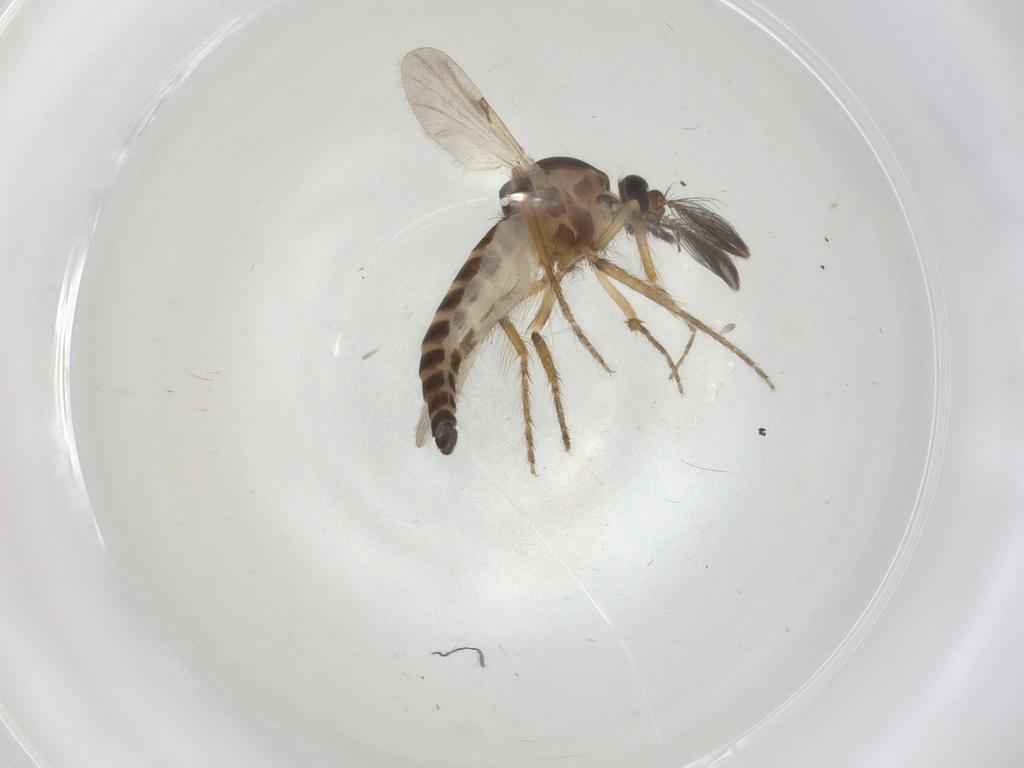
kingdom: Animalia
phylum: Arthropoda
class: Insecta
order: Diptera
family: Ceratopogonidae
